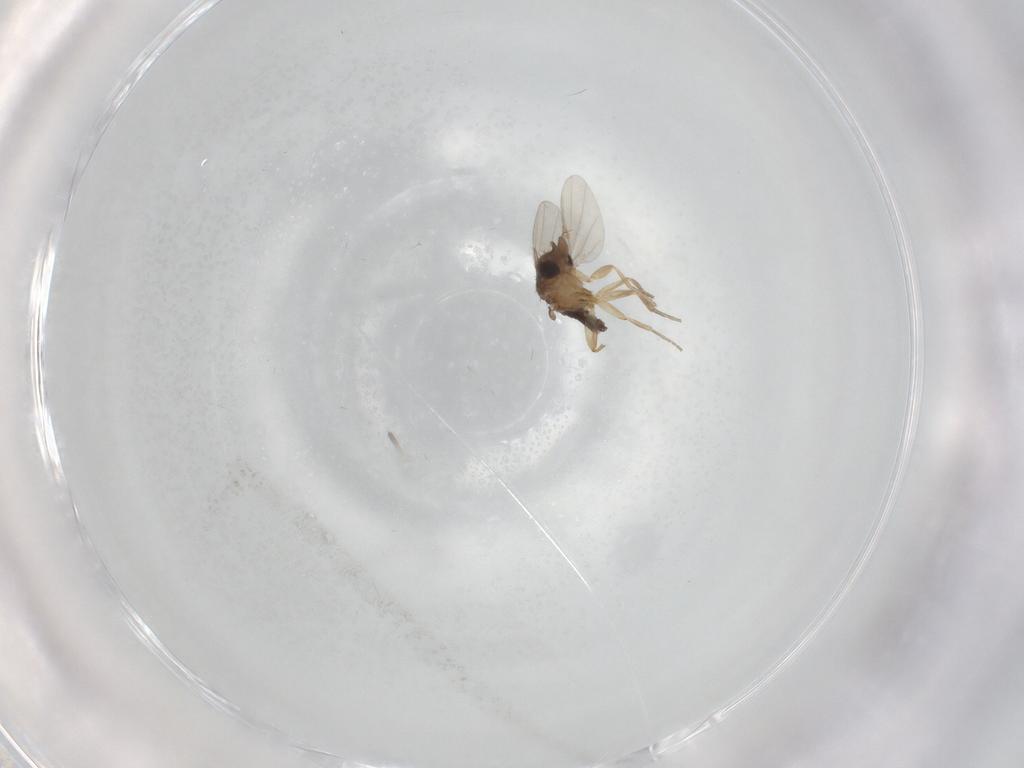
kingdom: Animalia
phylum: Arthropoda
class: Insecta
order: Diptera
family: Phoridae
